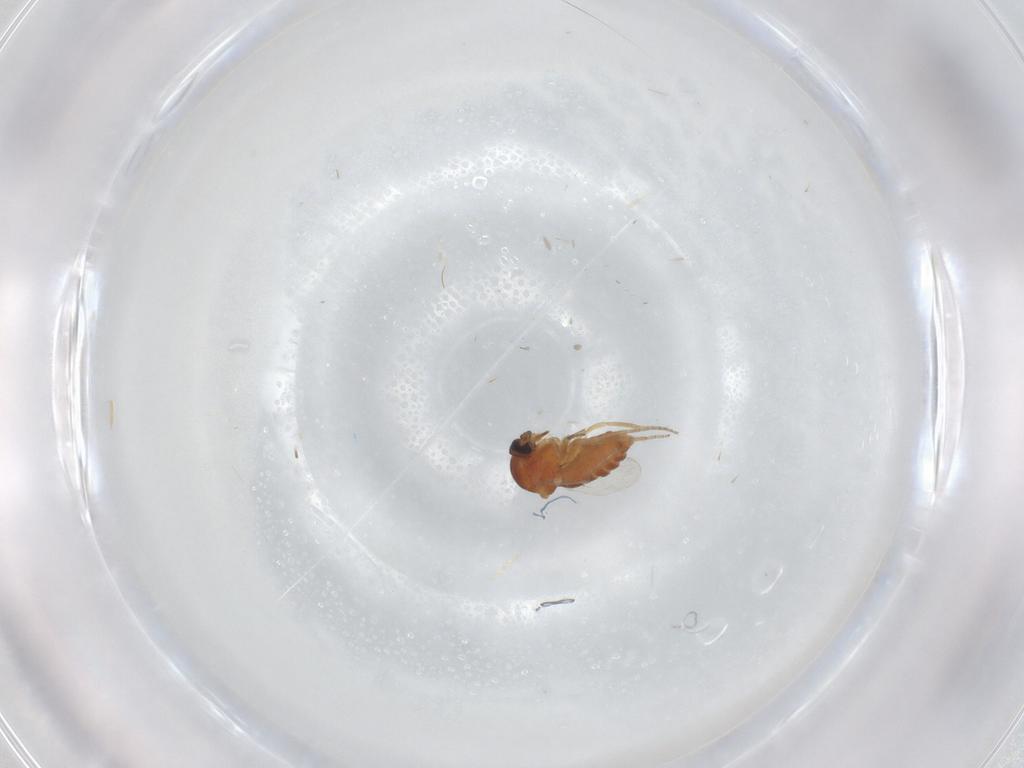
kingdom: Animalia
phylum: Arthropoda
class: Insecta
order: Diptera
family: Ceratopogonidae
